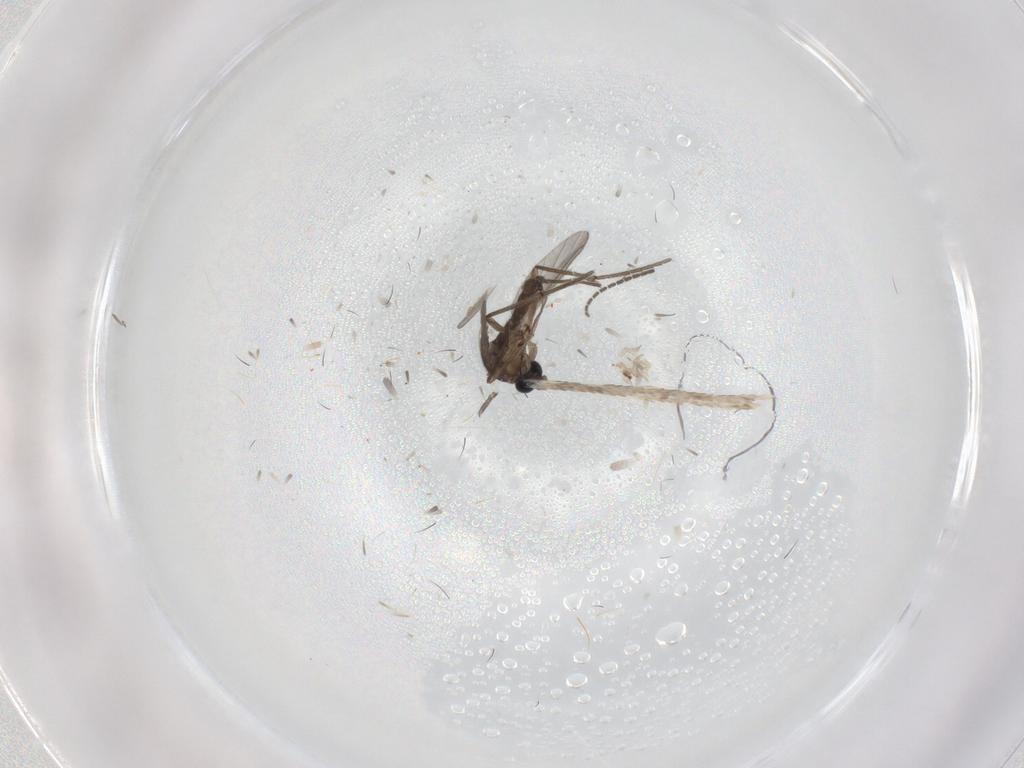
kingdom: Animalia
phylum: Arthropoda
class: Insecta
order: Diptera
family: Sciaridae
